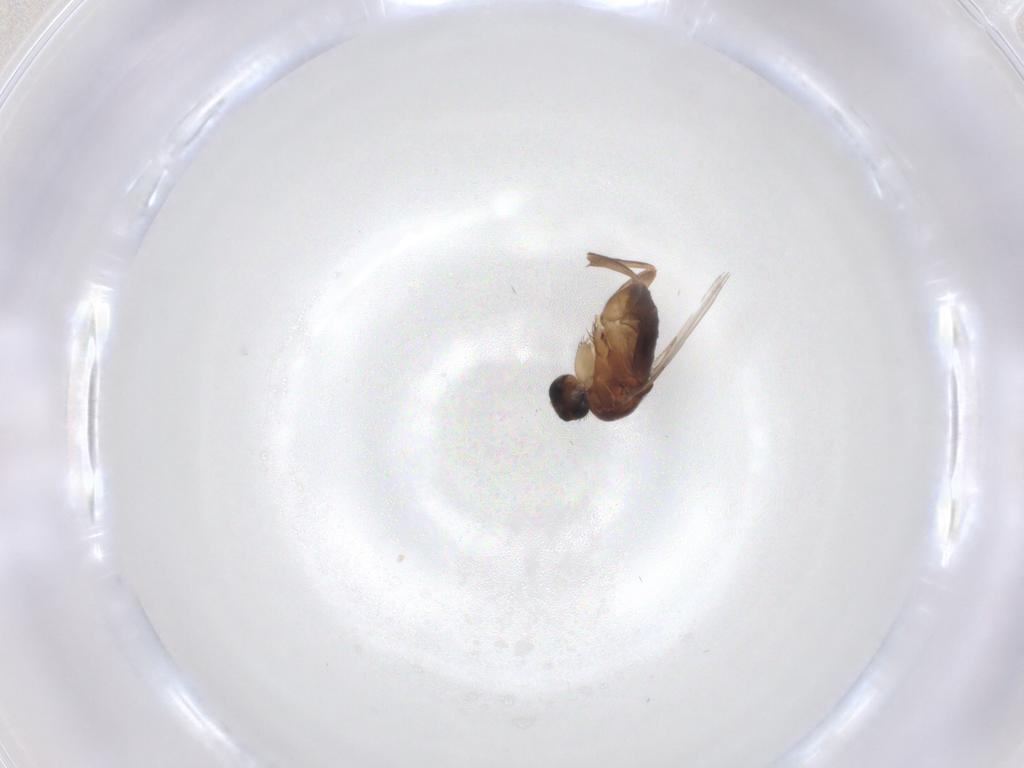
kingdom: Animalia
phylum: Arthropoda
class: Insecta
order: Diptera
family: Phoridae
